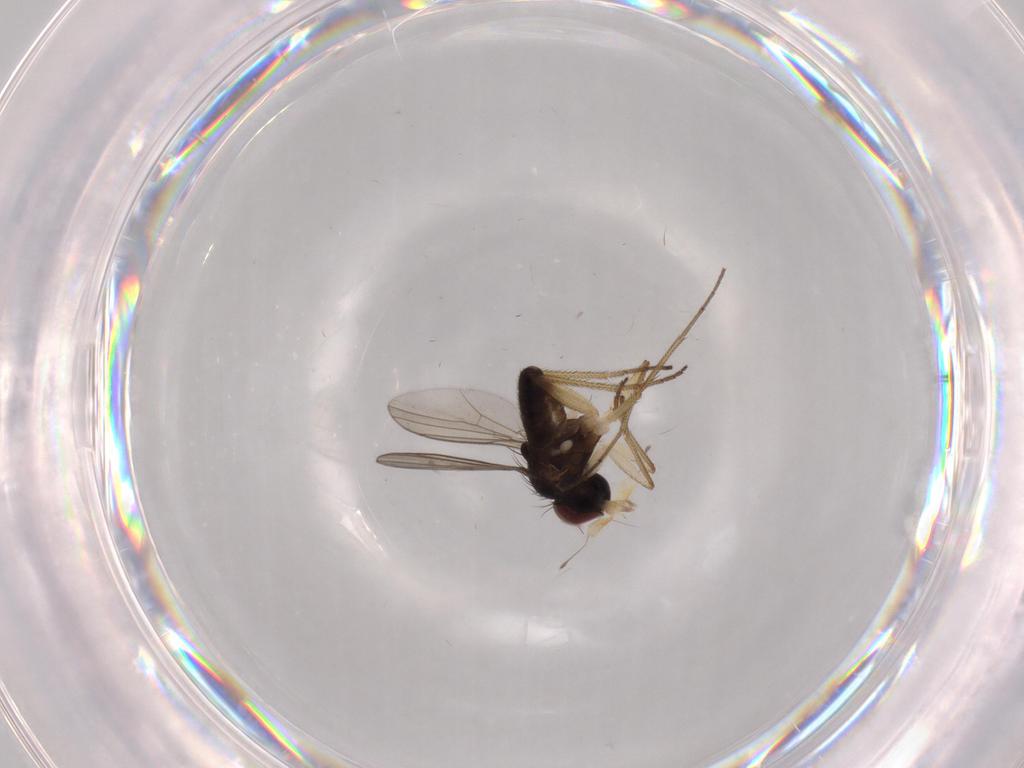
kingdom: Animalia
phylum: Arthropoda
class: Insecta
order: Diptera
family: Dolichopodidae
